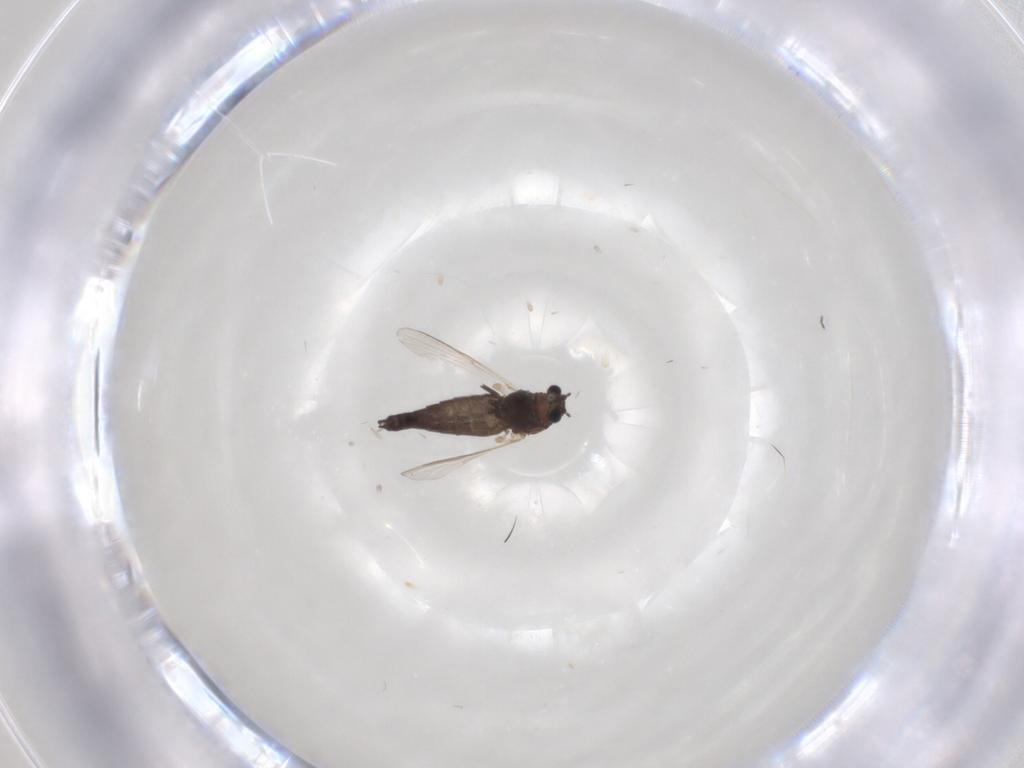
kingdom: Animalia
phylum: Arthropoda
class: Insecta
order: Diptera
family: Chironomidae
